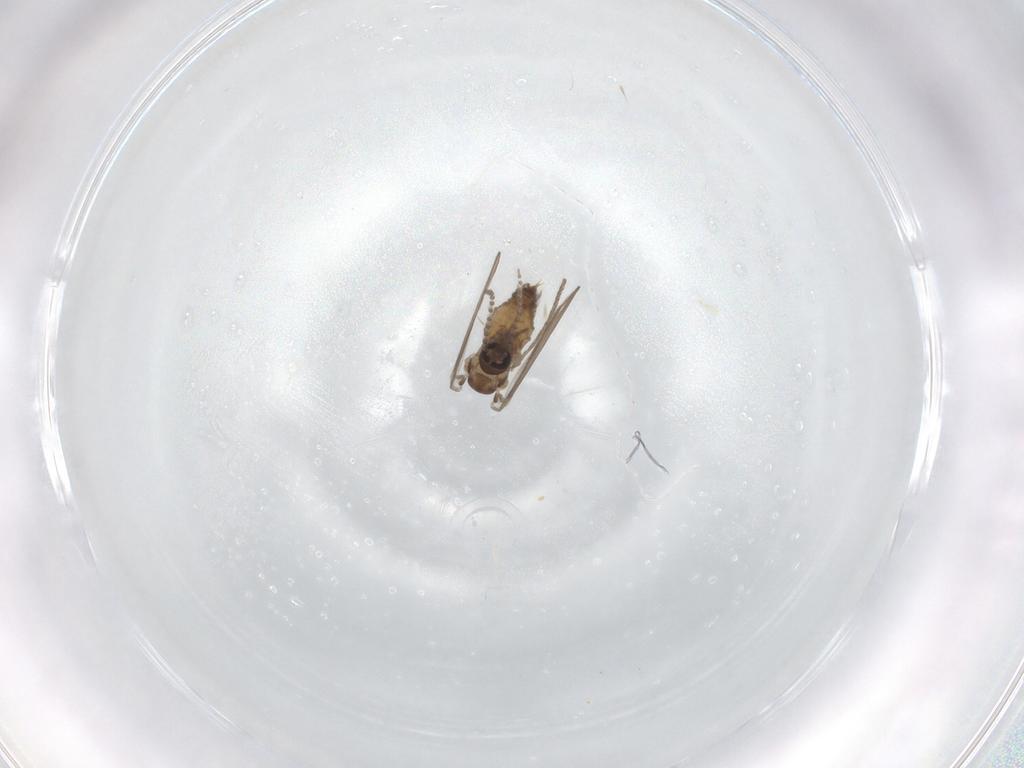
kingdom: Animalia
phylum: Arthropoda
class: Insecta
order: Diptera
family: Psychodidae
